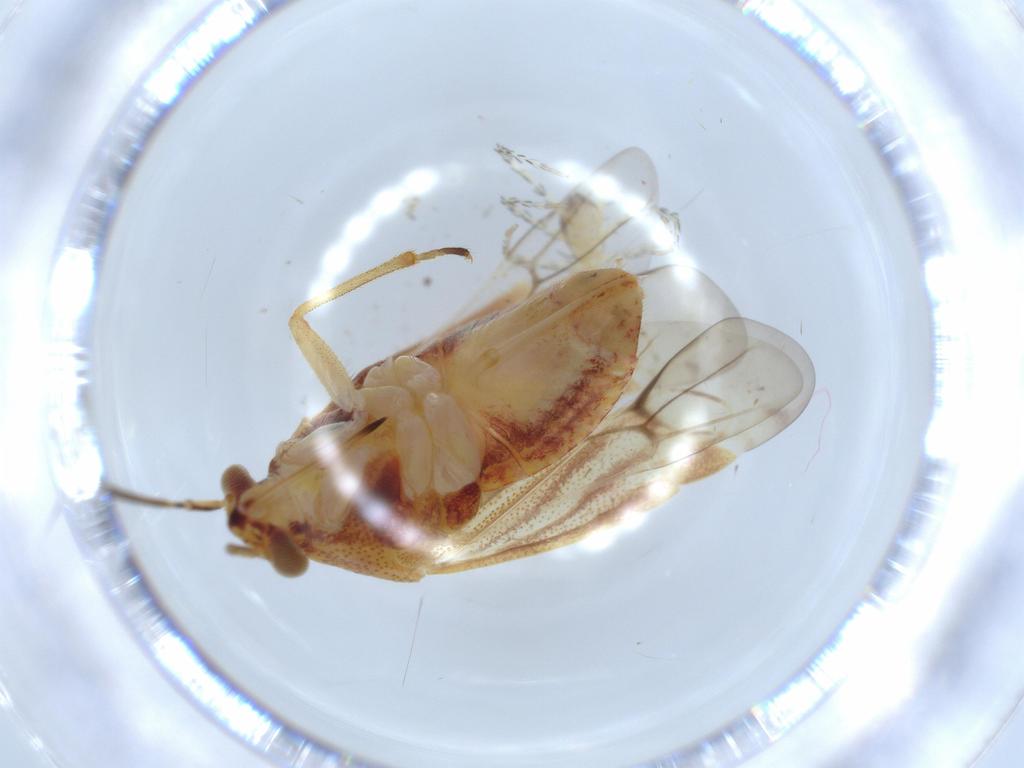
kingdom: Animalia
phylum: Arthropoda
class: Insecta
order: Hemiptera
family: Miridae
